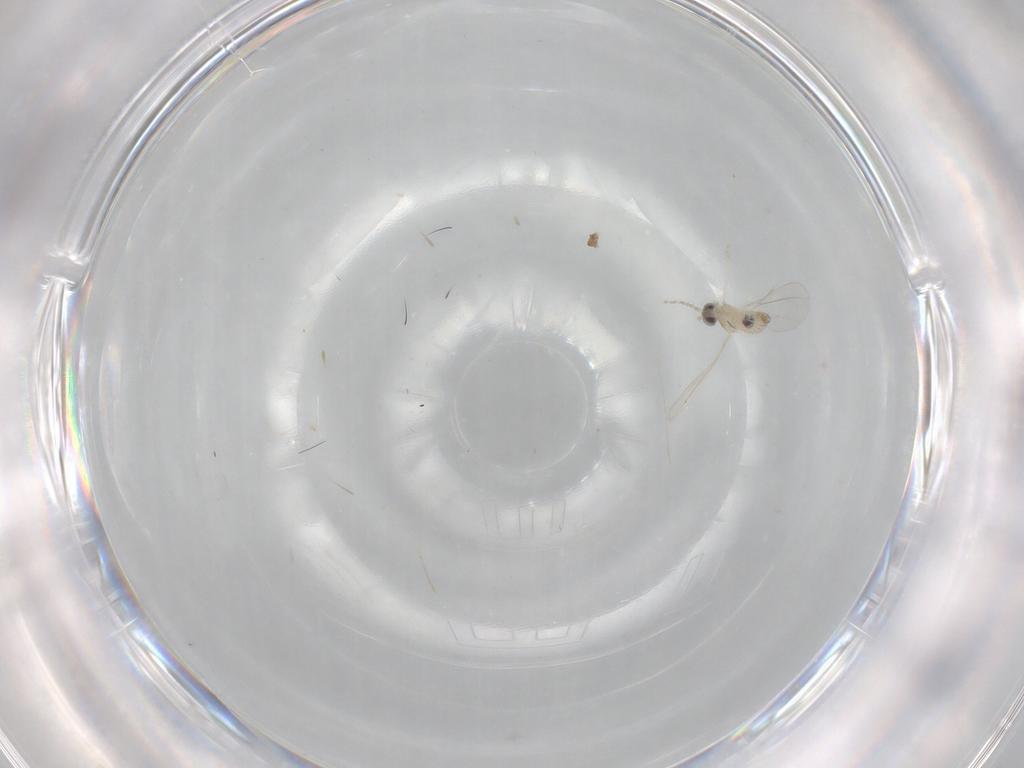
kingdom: Animalia
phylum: Arthropoda
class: Insecta
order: Diptera
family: Cecidomyiidae
